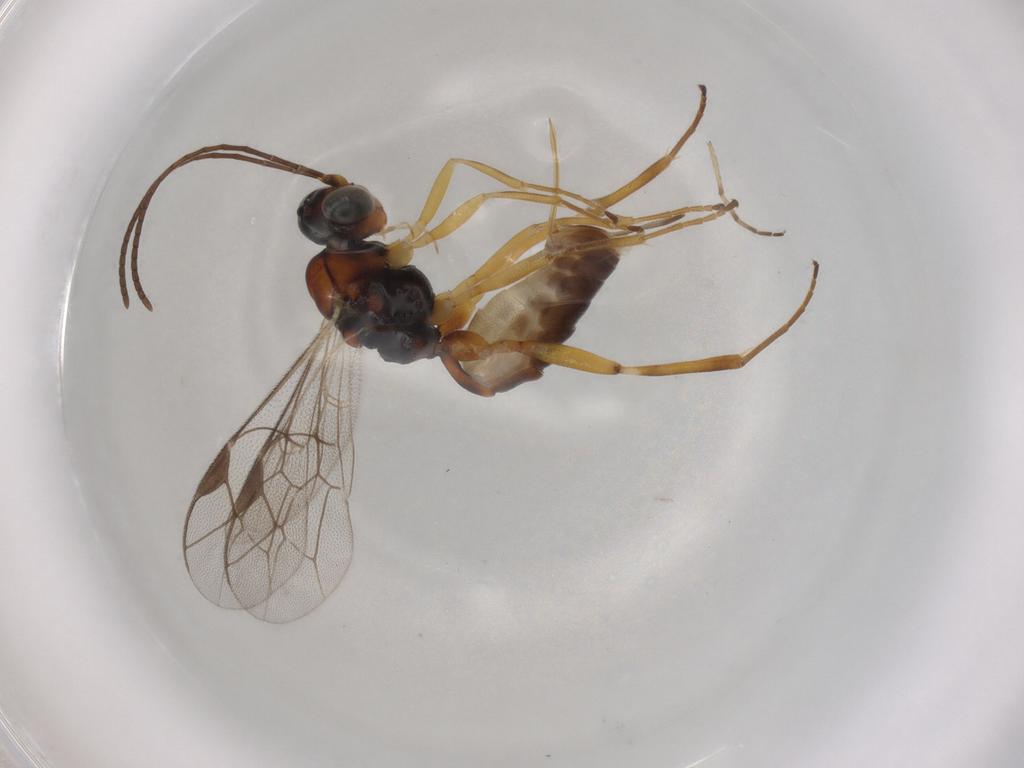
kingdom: Animalia
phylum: Arthropoda
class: Insecta
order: Hymenoptera
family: Ichneumonidae
